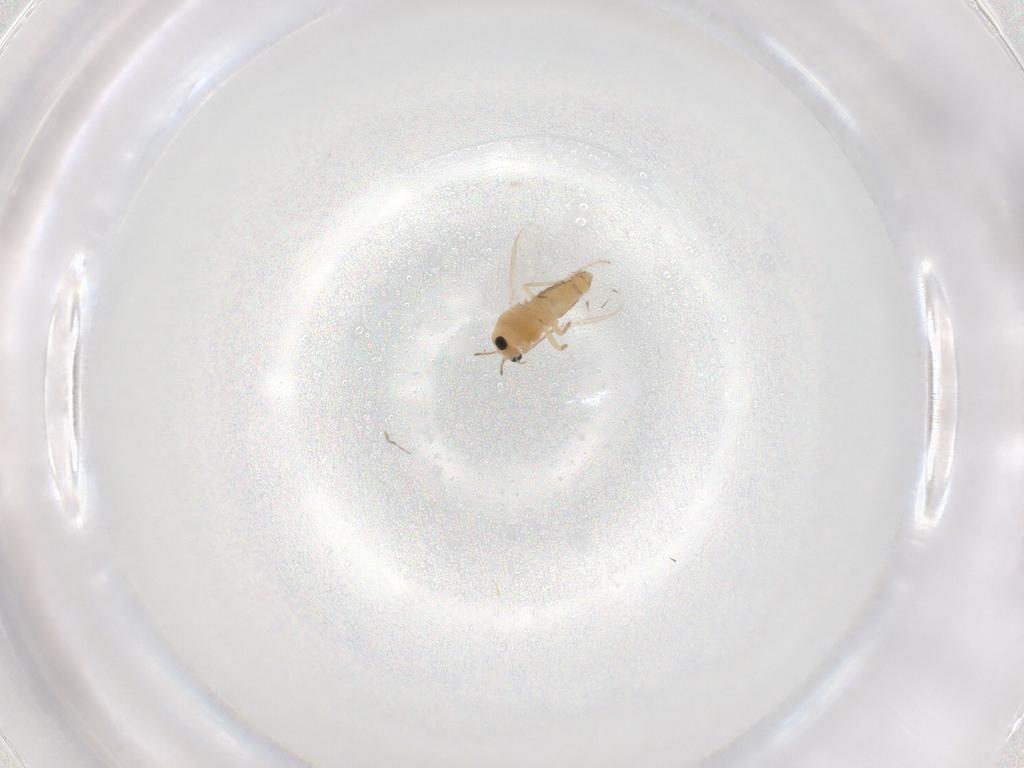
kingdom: Animalia
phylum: Arthropoda
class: Insecta
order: Diptera
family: Chironomidae
